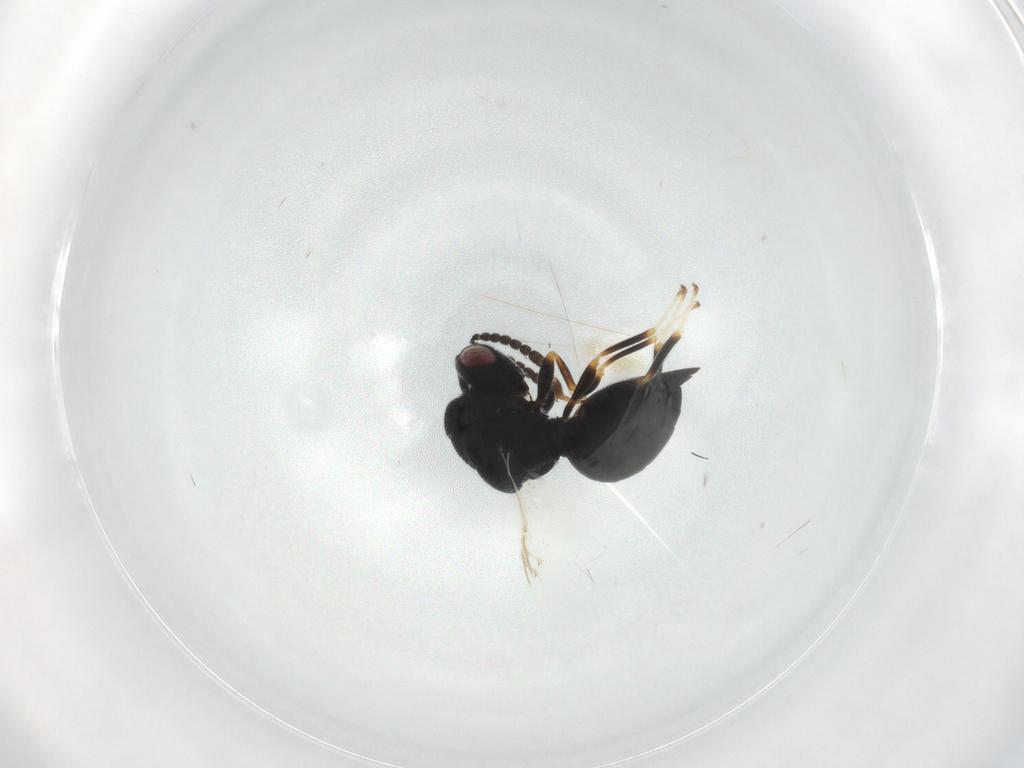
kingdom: Animalia
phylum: Arthropoda
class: Insecta
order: Hymenoptera
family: Eurytomidae
